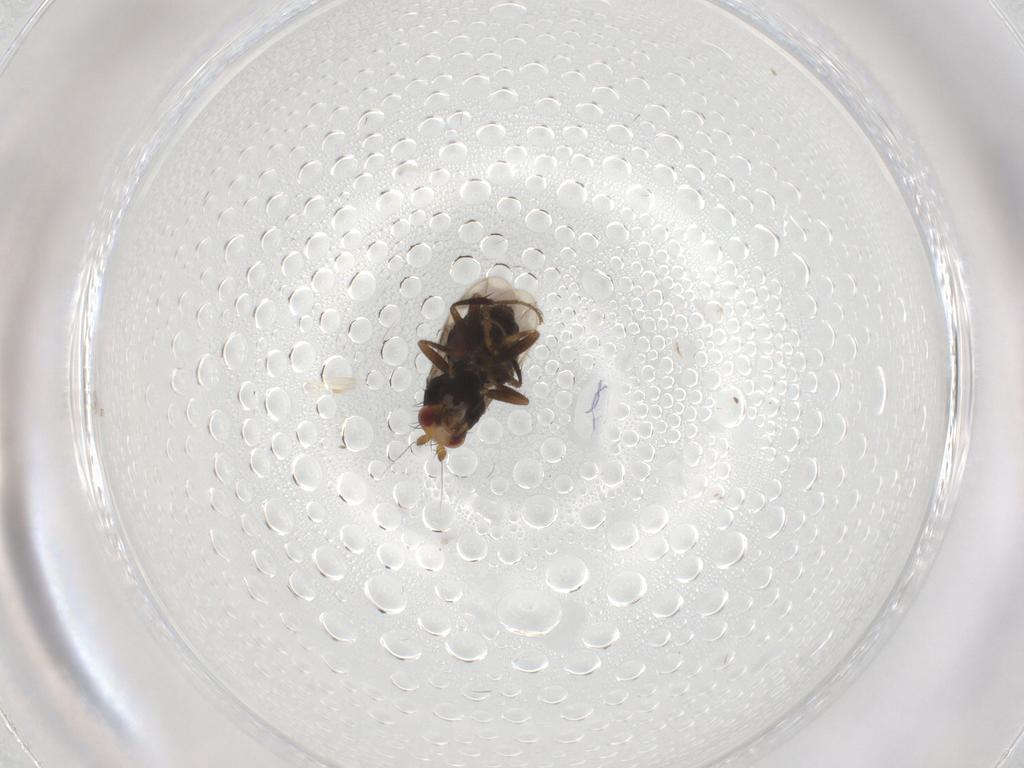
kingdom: Animalia
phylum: Arthropoda
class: Insecta
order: Diptera
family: Sphaeroceridae
